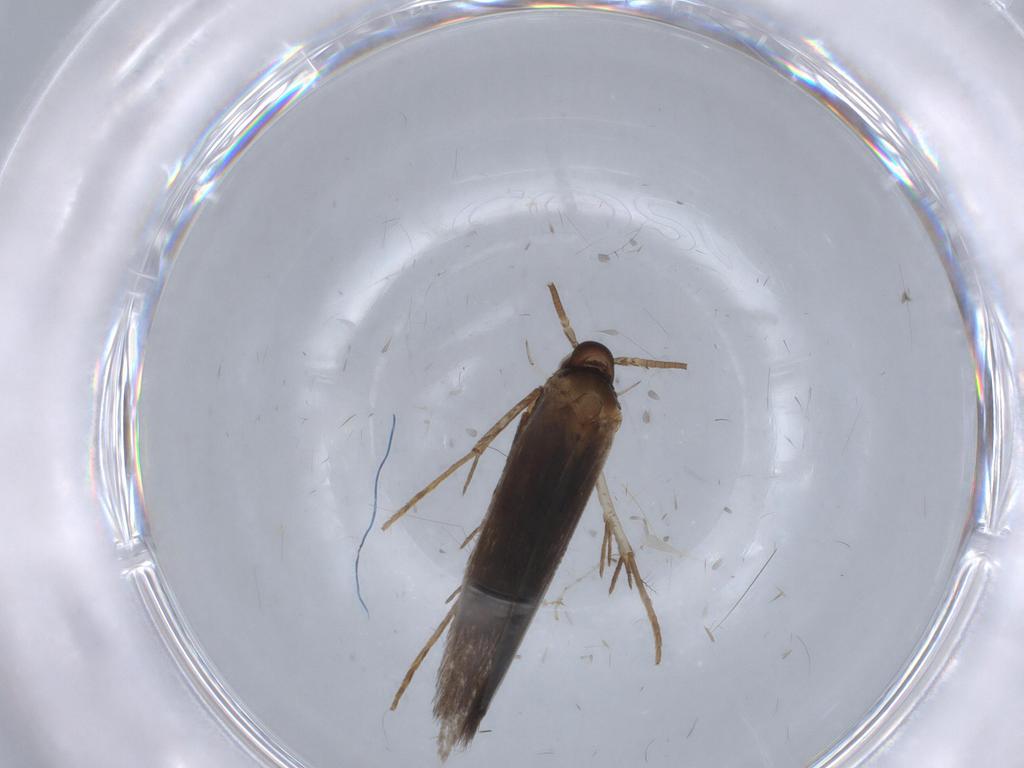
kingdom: Animalia
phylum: Arthropoda
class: Insecta
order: Lepidoptera
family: Coleophoridae
